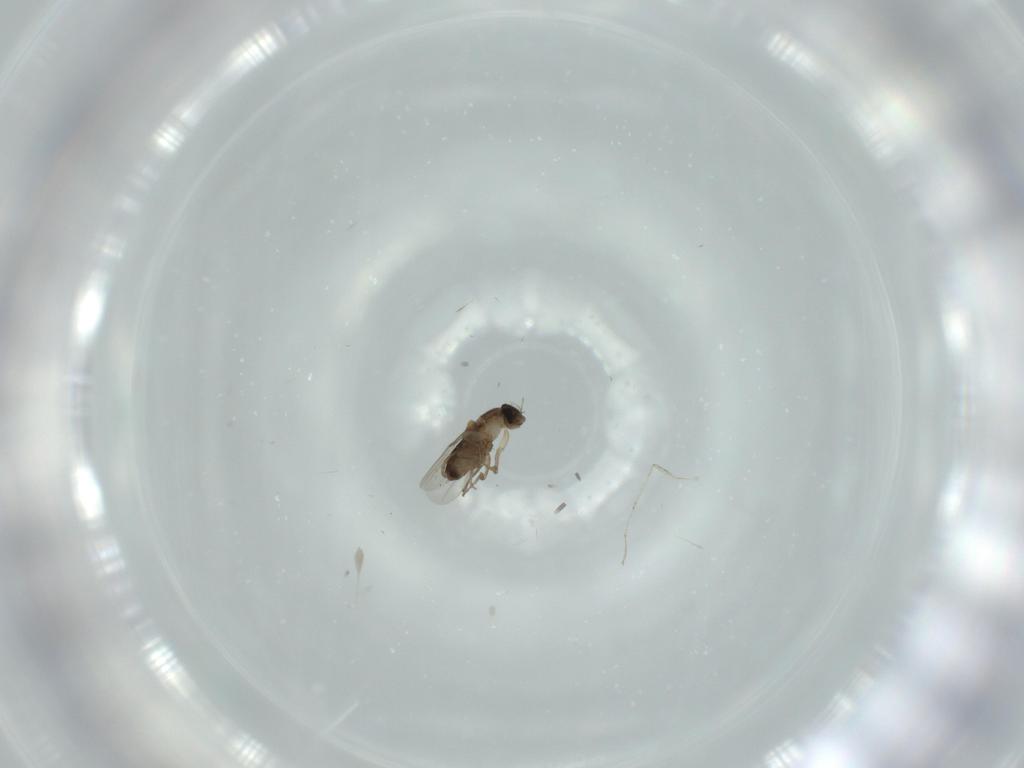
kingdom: Animalia
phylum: Arthropoda
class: Insecta
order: Diptera
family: Cecidomyiidae
